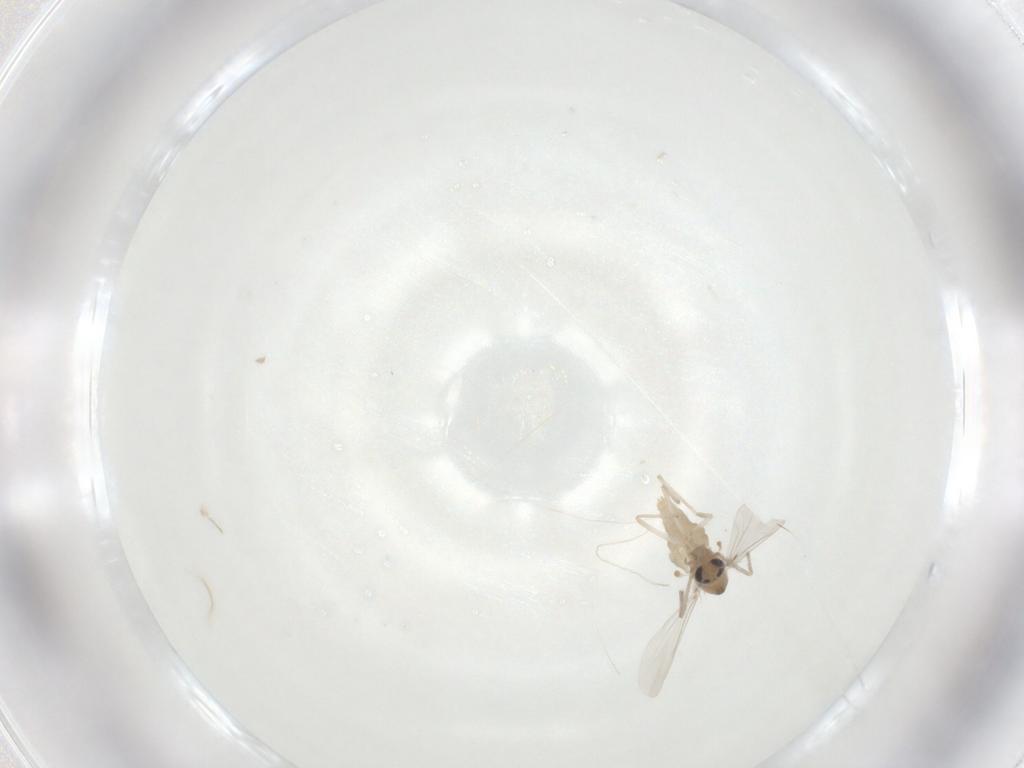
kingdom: Animalia
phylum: Arthropoda
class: Insecta
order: Diptera
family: Chironomidae
